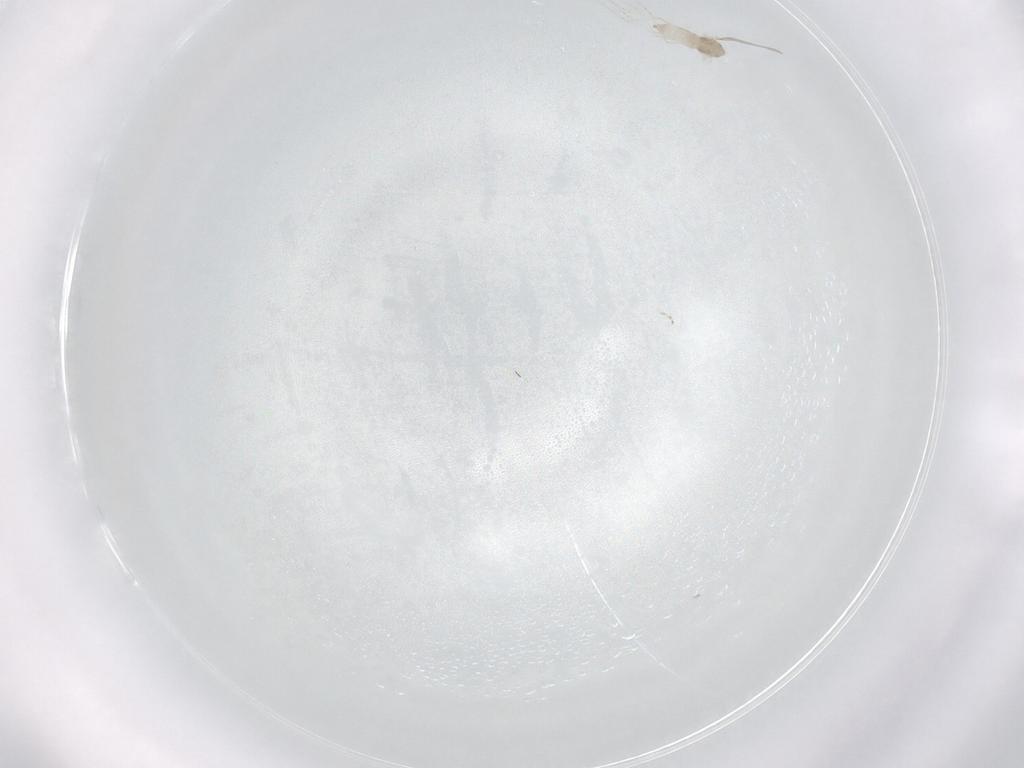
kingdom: Animalia
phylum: Arthropoda
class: Insecta
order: Diptera
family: Cecidomyiidae
